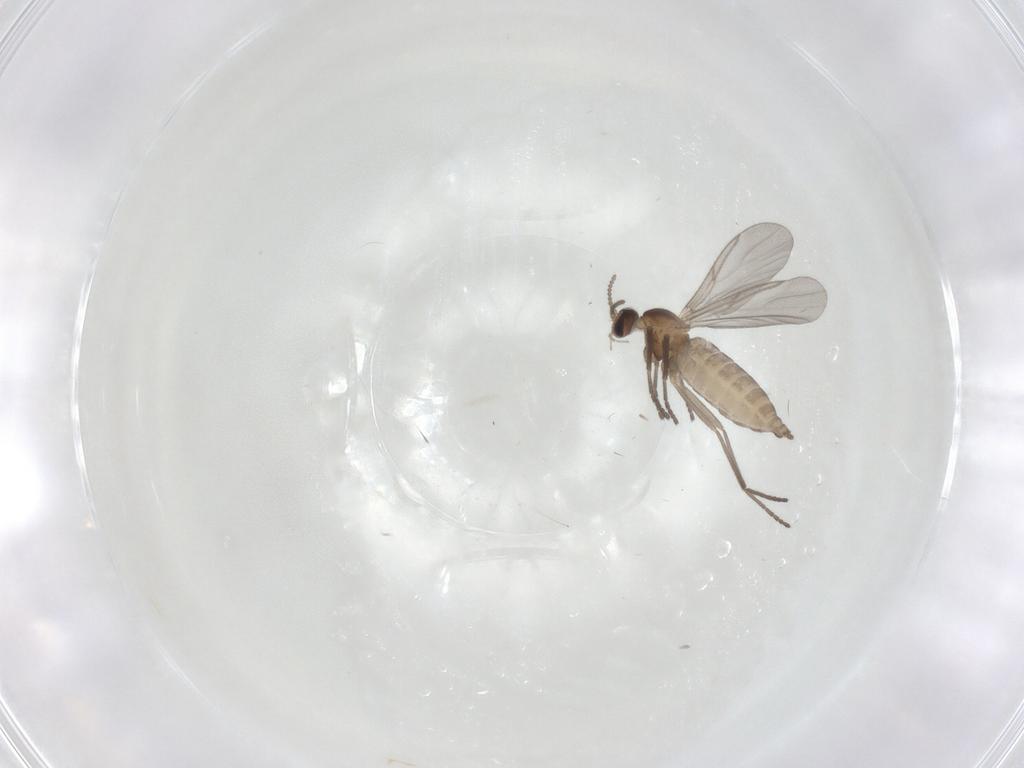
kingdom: Animalia
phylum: Arthropoda
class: Insecta
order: Diptera
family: Cecidomyiidae
